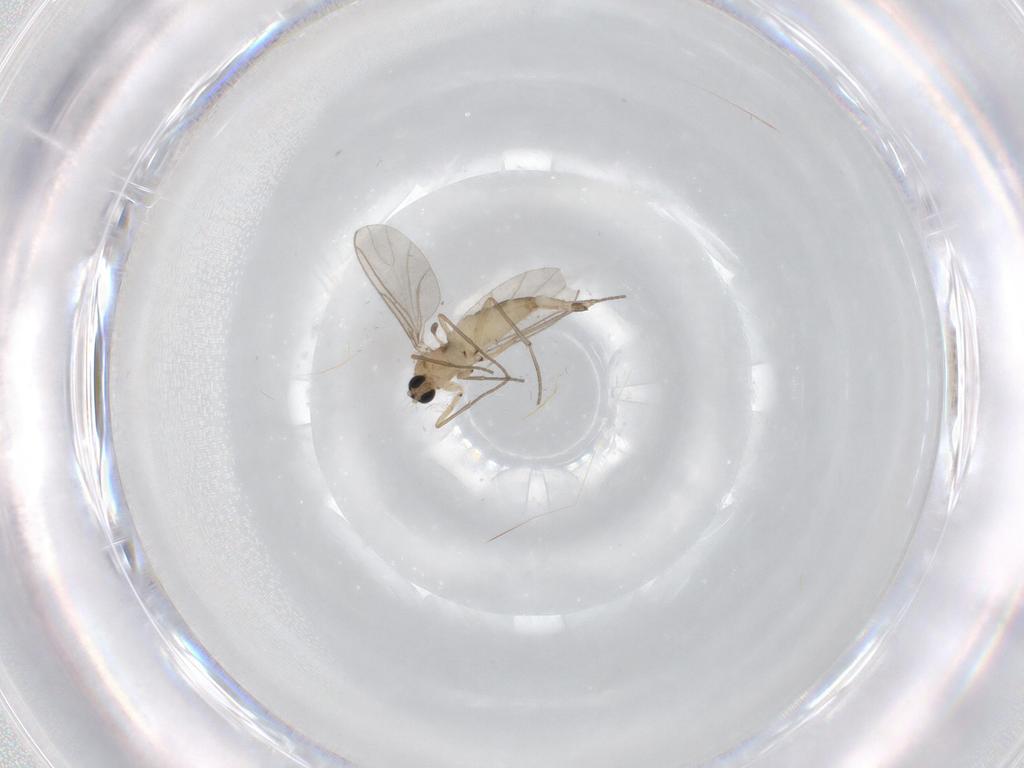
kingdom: Animalia
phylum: Arthropoda
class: Insecta
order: Diptera
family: Sciaridae
